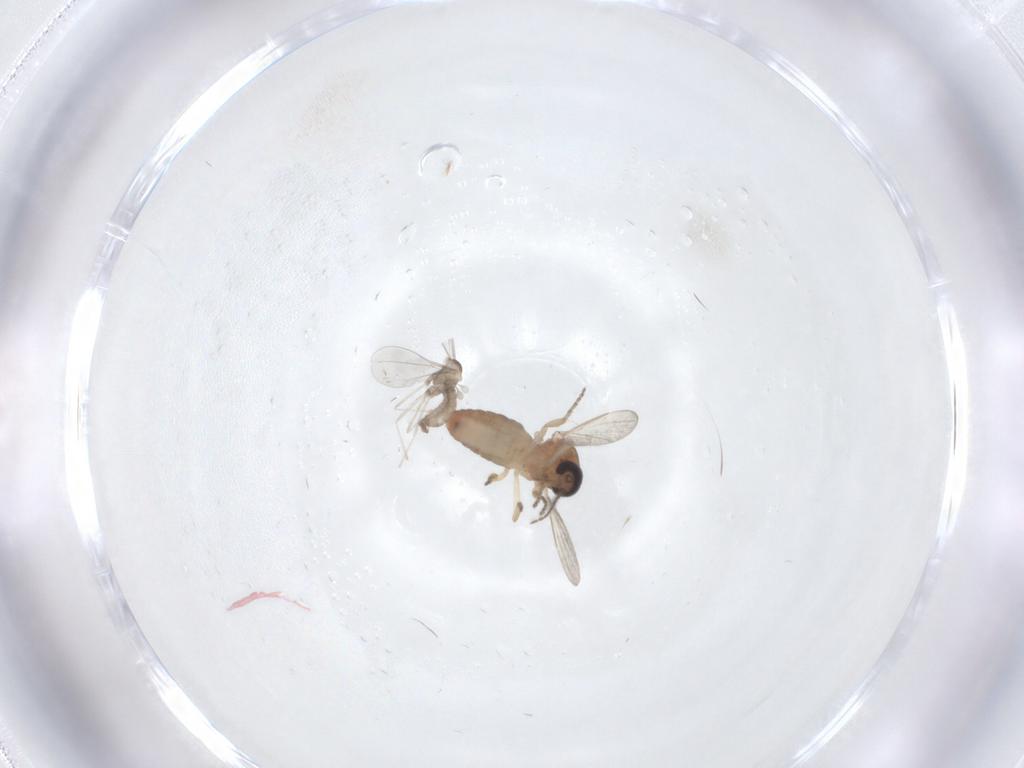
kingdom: Animalia
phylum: Arthropoda
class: Insecta
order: Diptera
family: Ceratopogonidae
